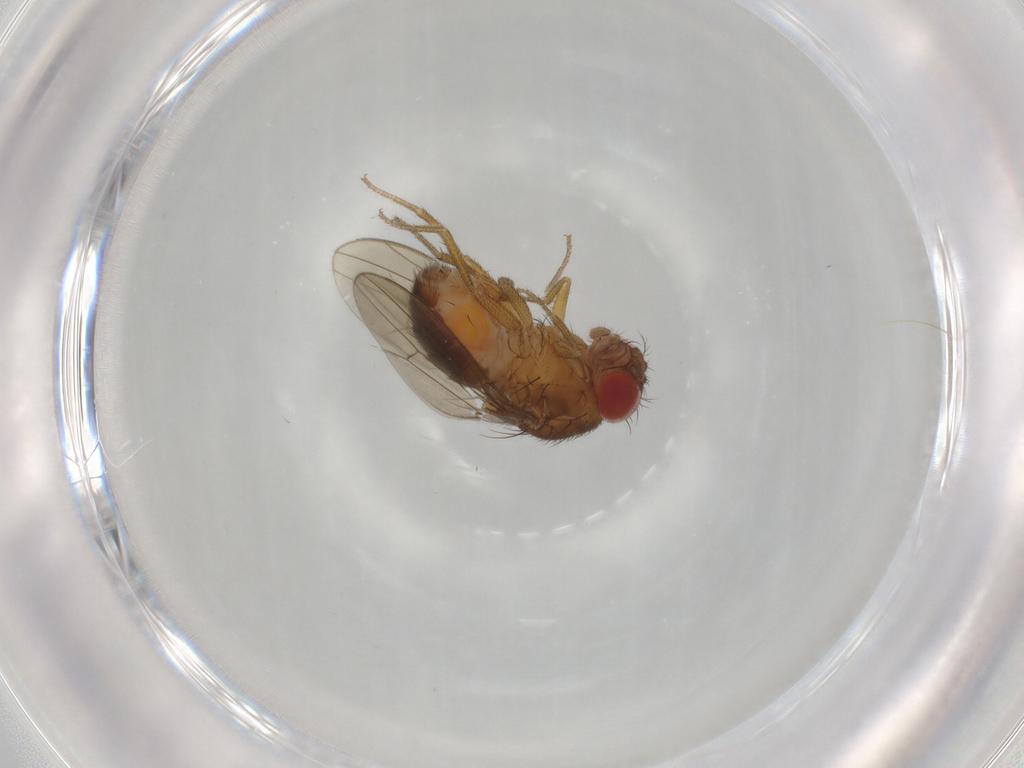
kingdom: Animalia
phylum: Arthropoda
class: Insecta
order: Diptera
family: Drosophilidae
